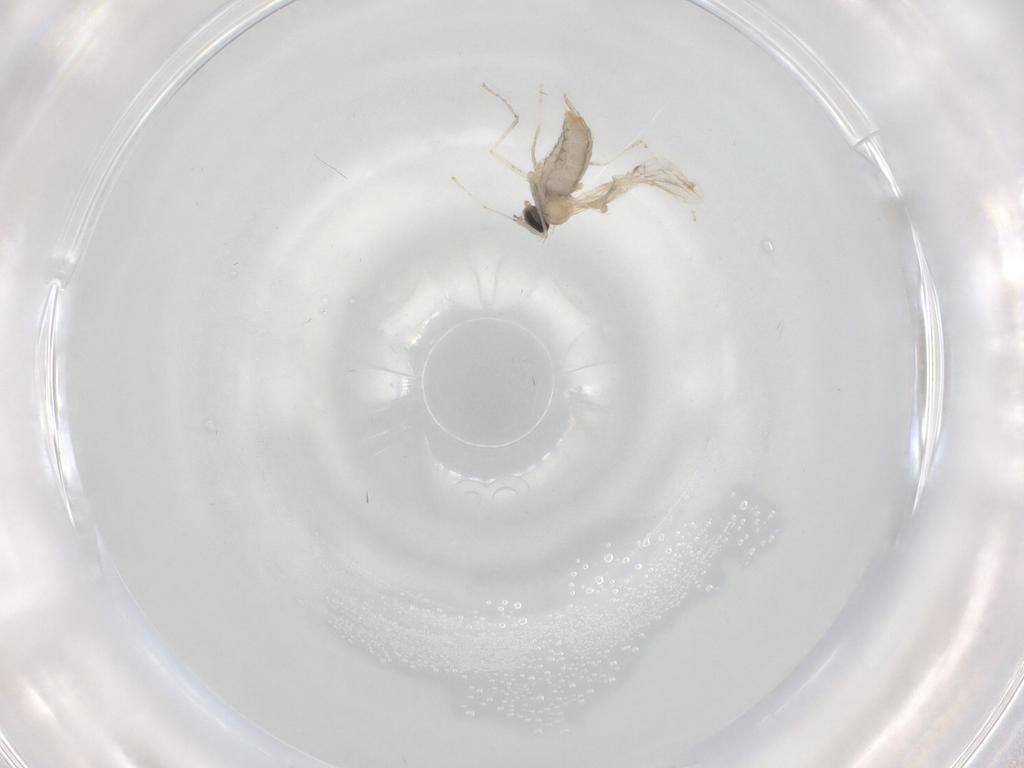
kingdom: Animalia
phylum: Arthropoda
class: Insecta
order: Diptera
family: Cecidomyiidae
